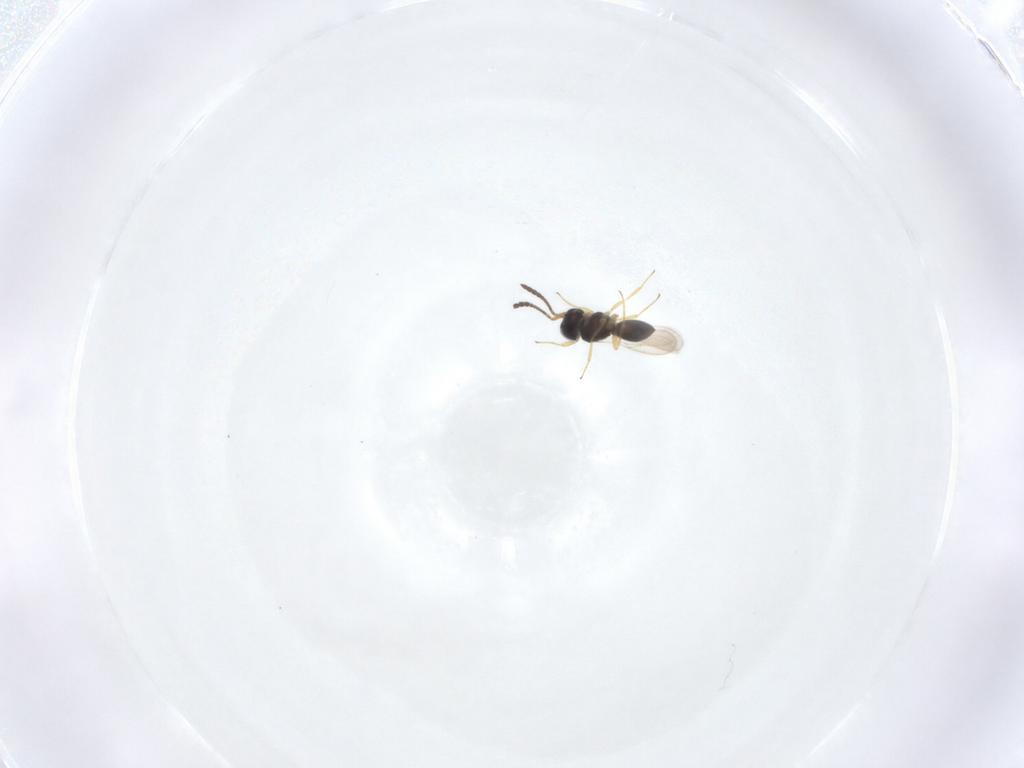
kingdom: Animalia
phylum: Arthropoda
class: Insecta
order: Hymenoptera
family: Scelionidae
